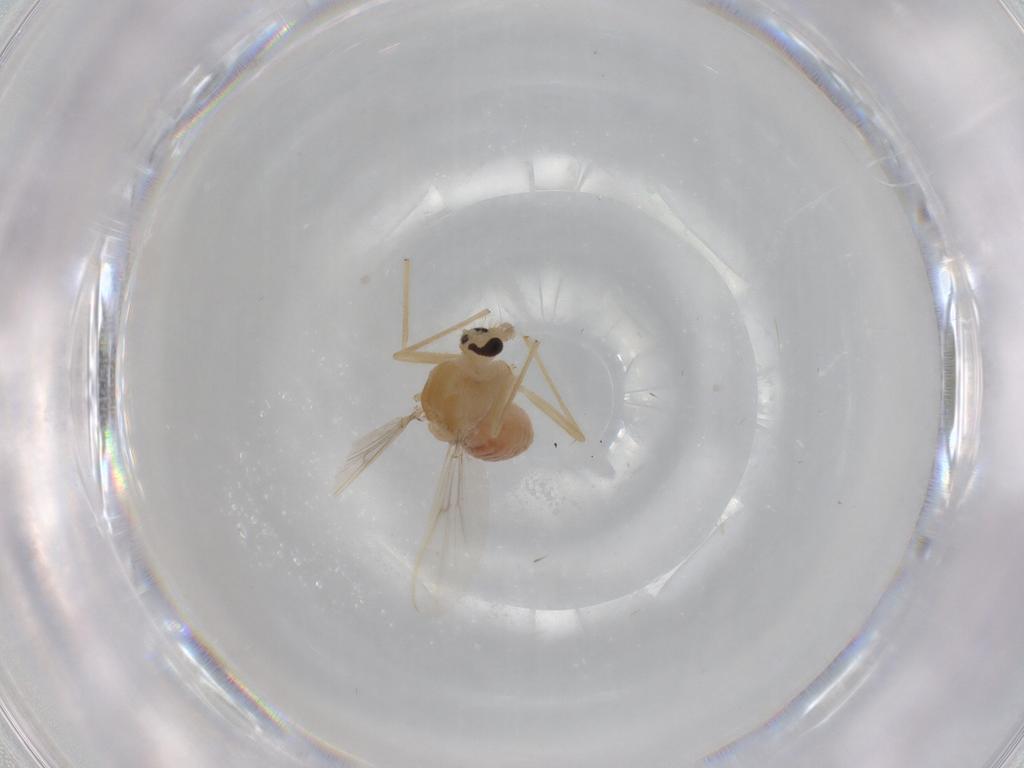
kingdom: Animalia
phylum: Arthropoda
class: Insecta
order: Diptera
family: Chironomidae
